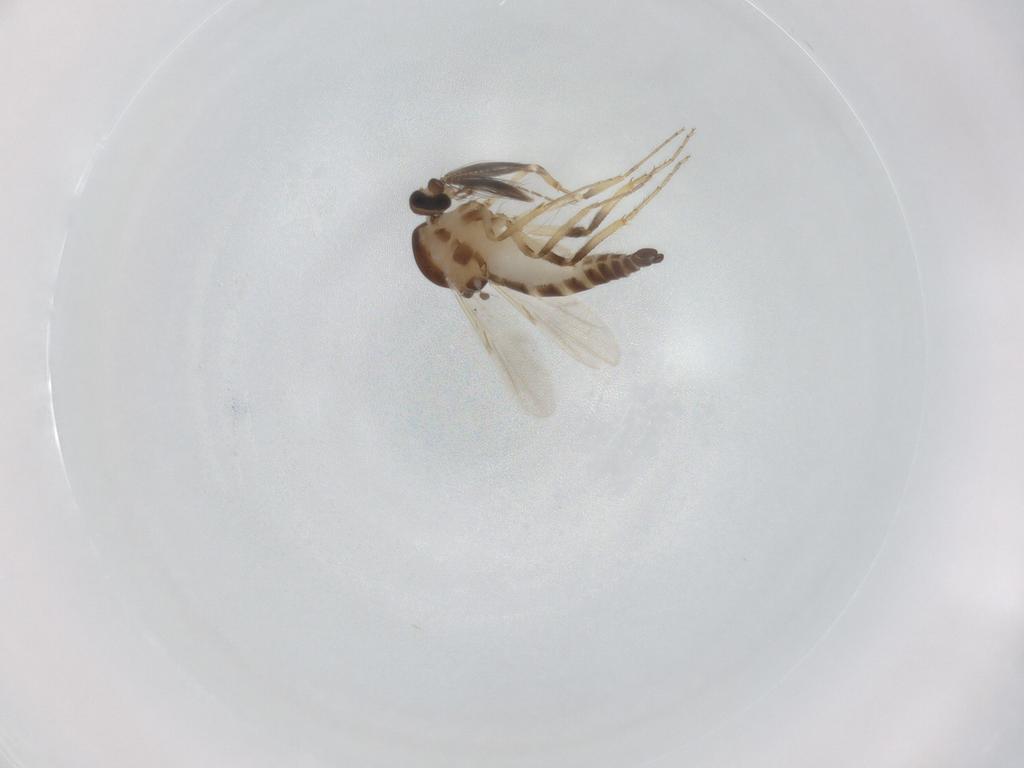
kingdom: Animalia
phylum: Arthropoda
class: Insecta
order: Diptera
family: Ceratopogonidae
